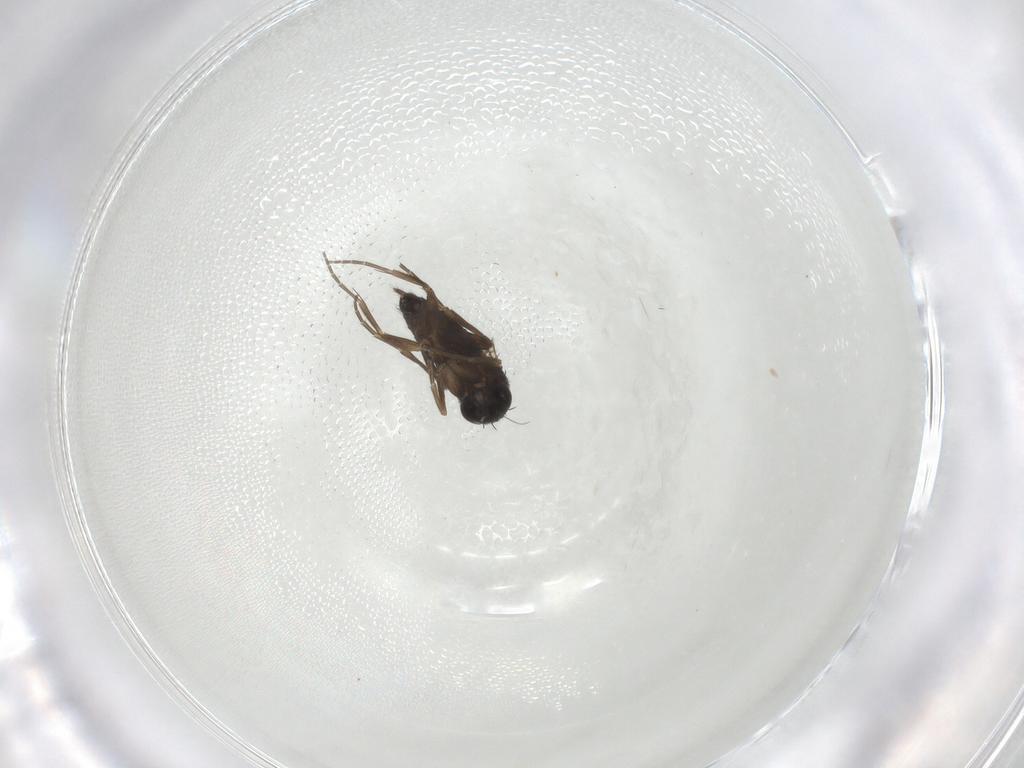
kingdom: Animalia
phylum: Arthropoda
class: Insecta
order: Diptera
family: Phoridae
